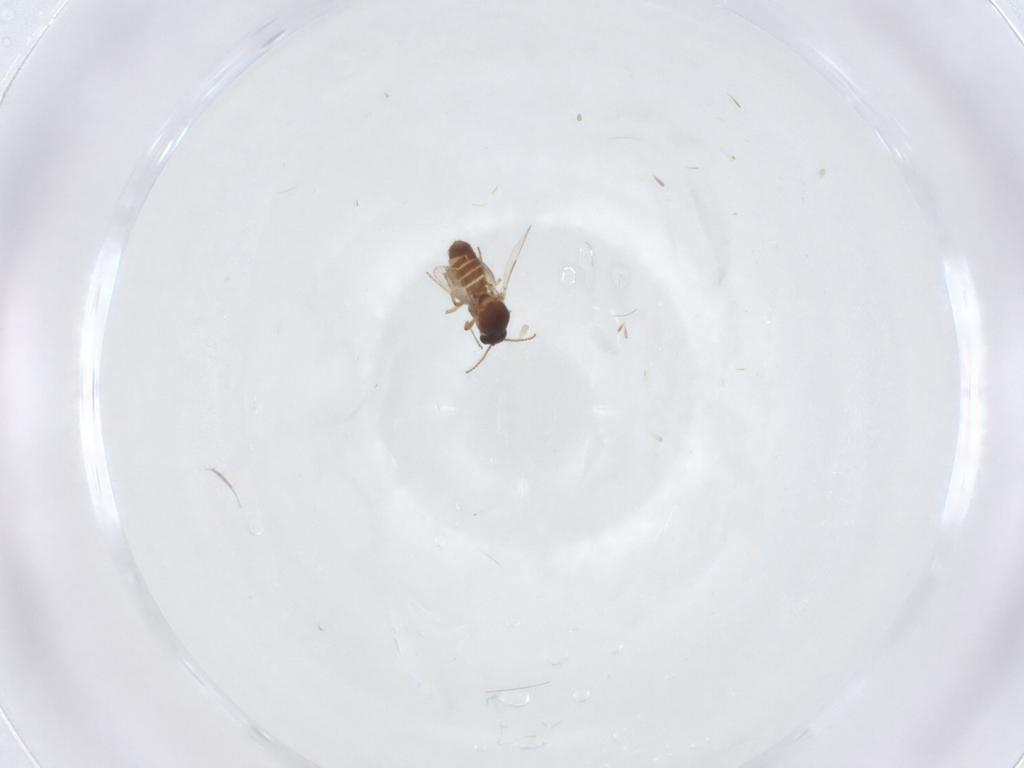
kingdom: Animalia
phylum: Arthropoda
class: Insecta
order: Diptera
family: Ceratopogonidae
